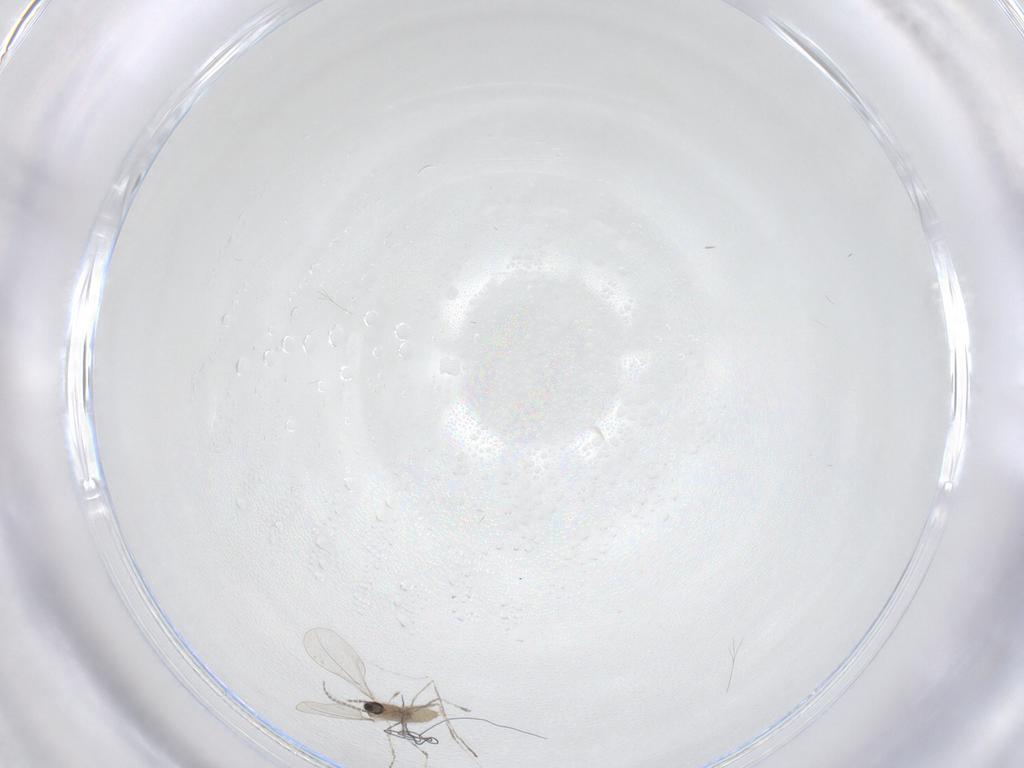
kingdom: Animalia
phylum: Arthropoda
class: Insecta
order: Diptera
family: Cecidomyiidae
